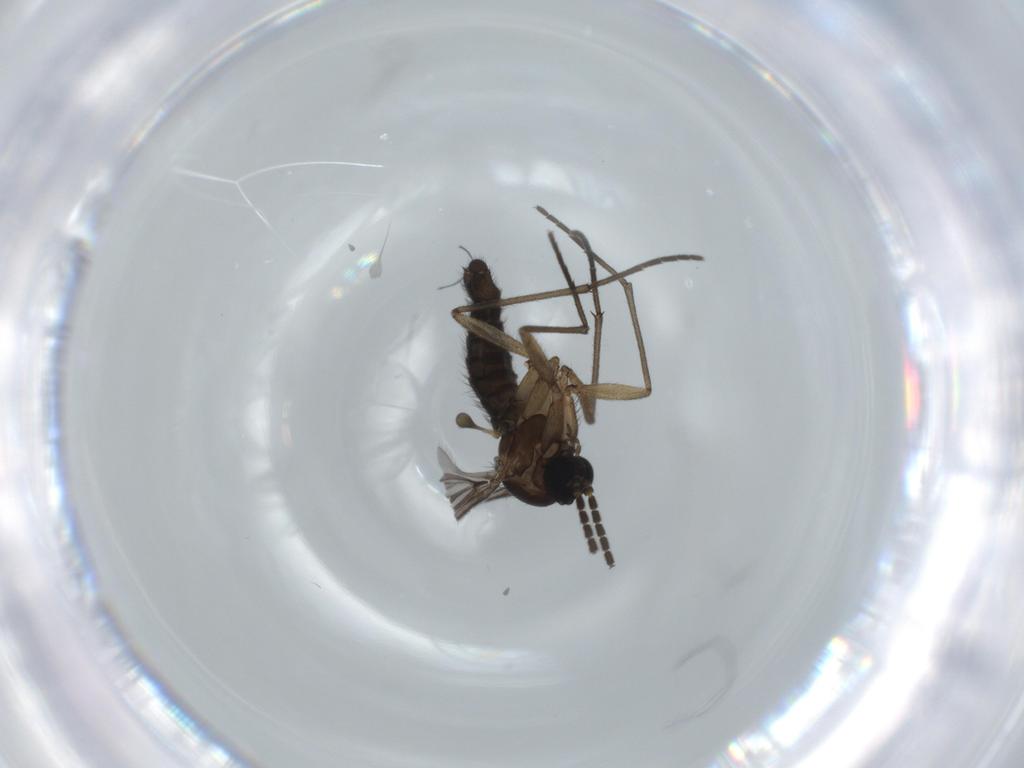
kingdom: Animalia
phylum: Arthropoda
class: Insecta
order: Diptera
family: Sciaridae
